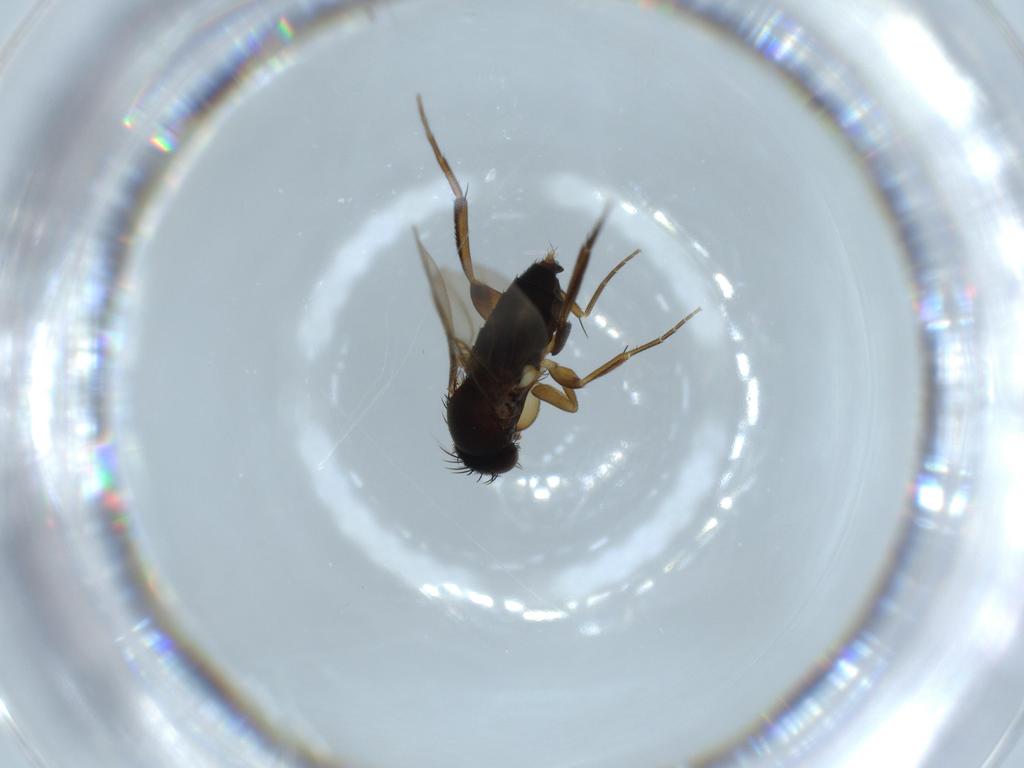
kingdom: Animalia
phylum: Arthropoda
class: Insecta
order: Diptera
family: Phoridae
